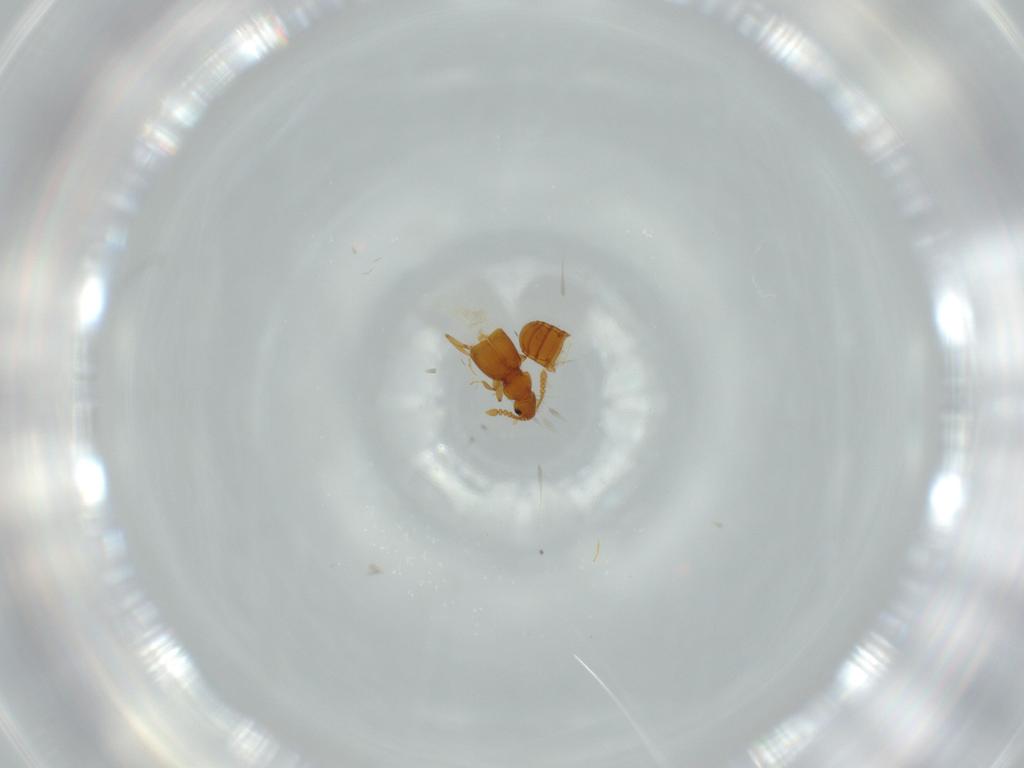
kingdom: Animalia
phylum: Arthropoda
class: Insecta
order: Coleoptera
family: Staphylinidae
